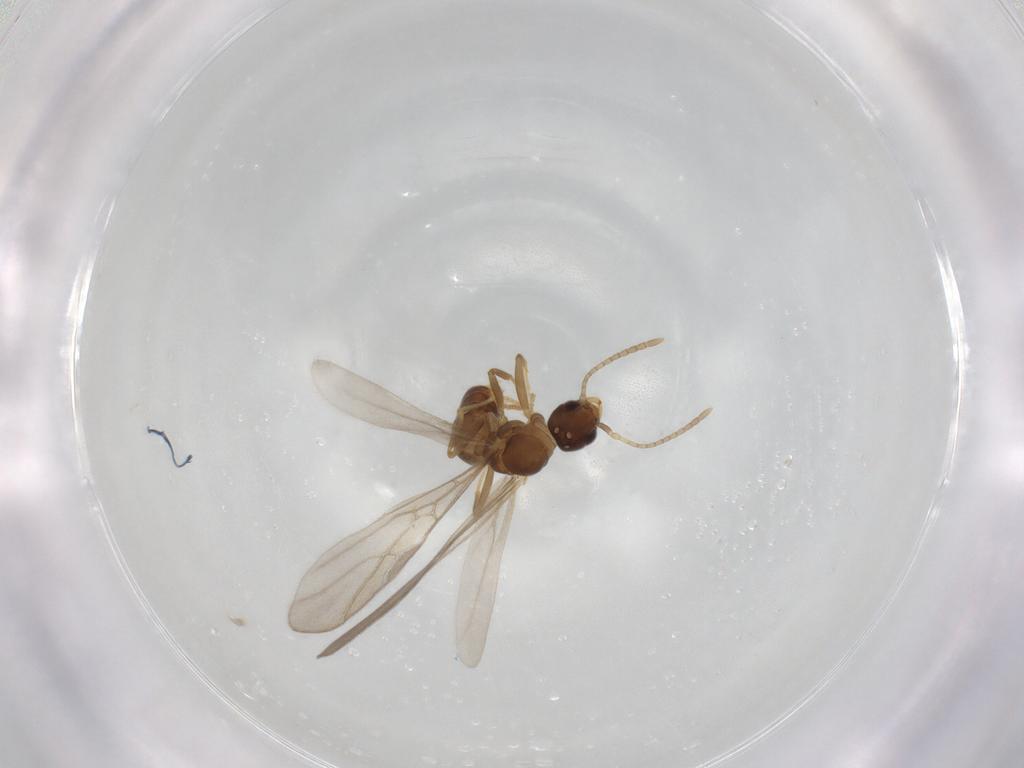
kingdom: Animalia
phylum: Arthropoda
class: Insecta
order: Hymenoptera
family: Formicidae
